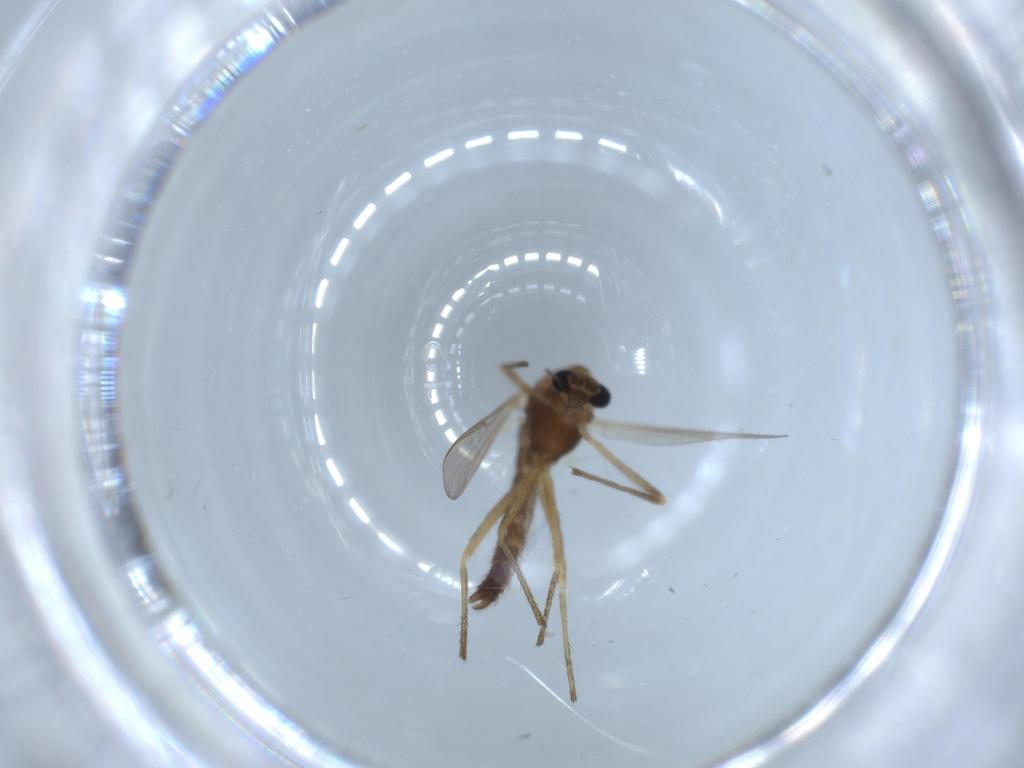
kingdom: Animalia
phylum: Arthropoda
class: Insecta
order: Diptera
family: Chironomidae
